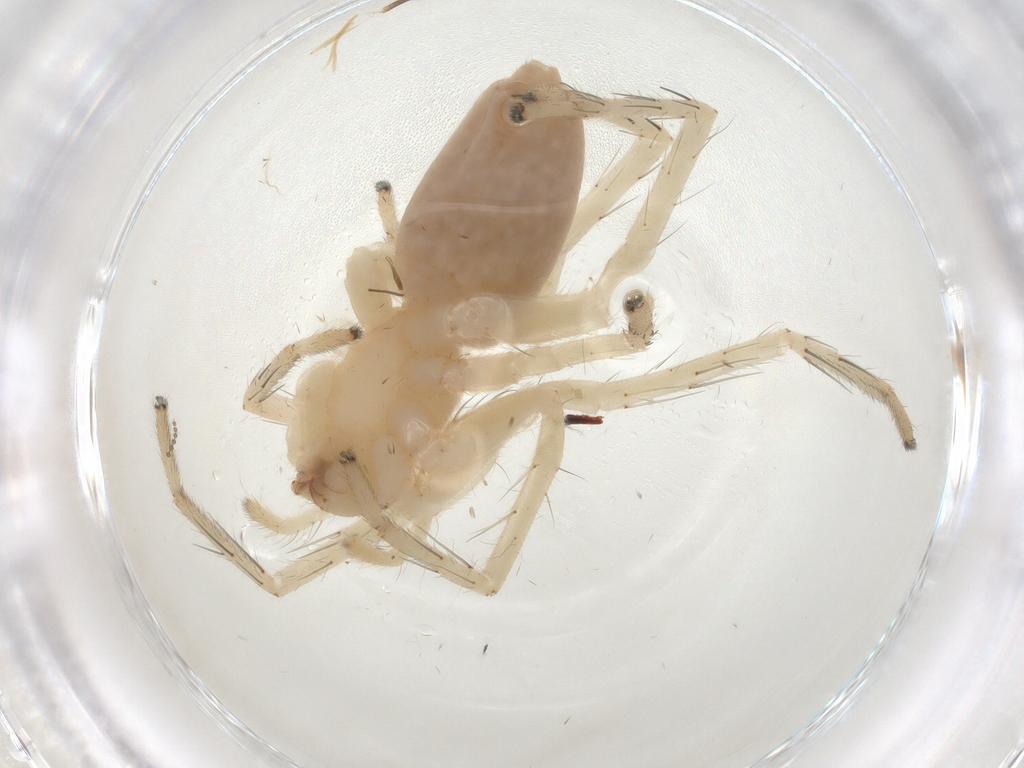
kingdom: Animalia
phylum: Arthropoda
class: Arachnida
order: Araneae
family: Anyphaenidae
